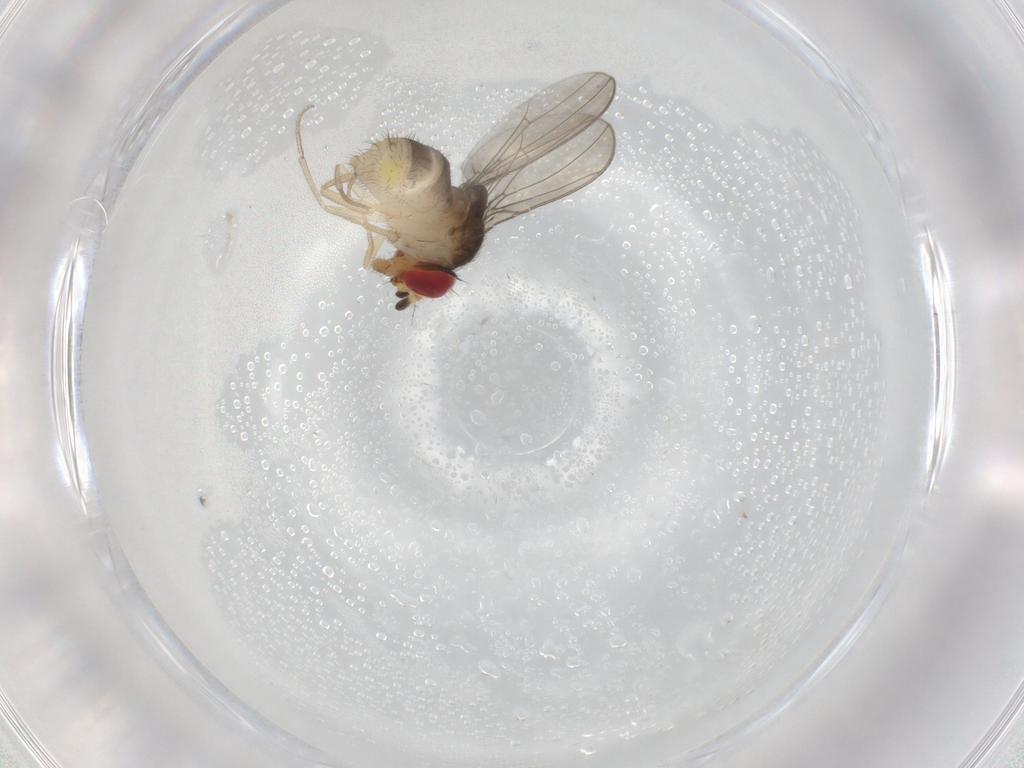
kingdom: Animalia
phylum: Arthropoda
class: Insecta
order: Diptera
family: Drosophilidae
